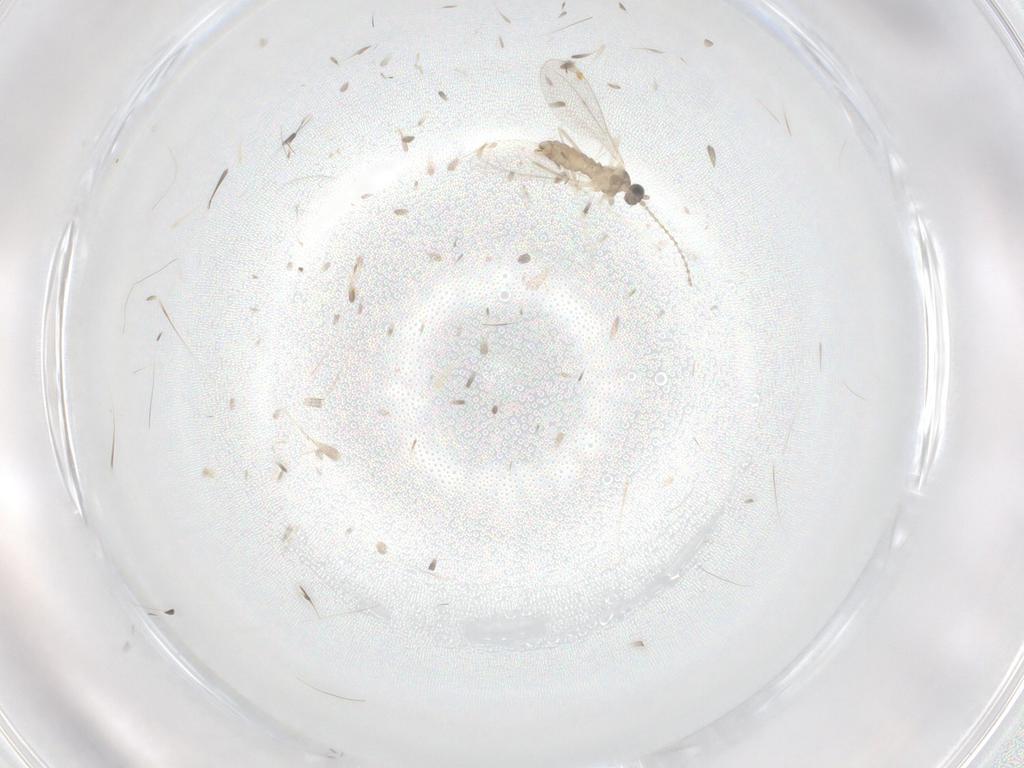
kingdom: Animalia
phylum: Arthropoda
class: Insecta
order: Diptera
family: Cecidomyiidae
